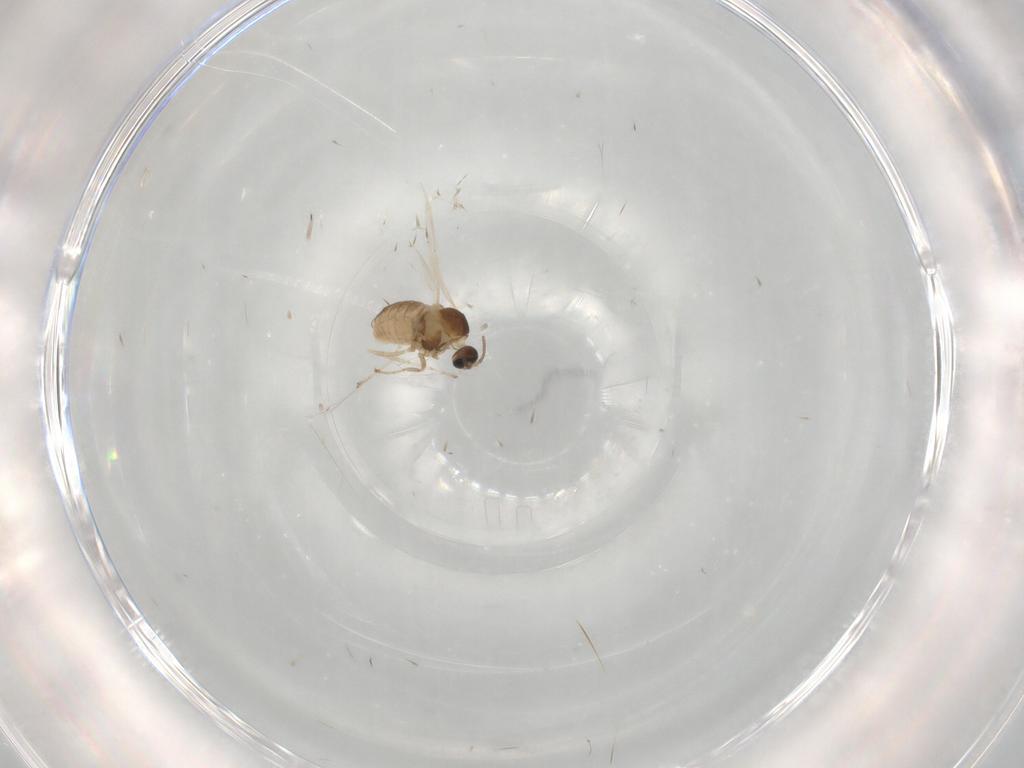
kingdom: Animalia
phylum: Arthropoda
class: Insecta
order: Diptera
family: Cecidomyiidae
